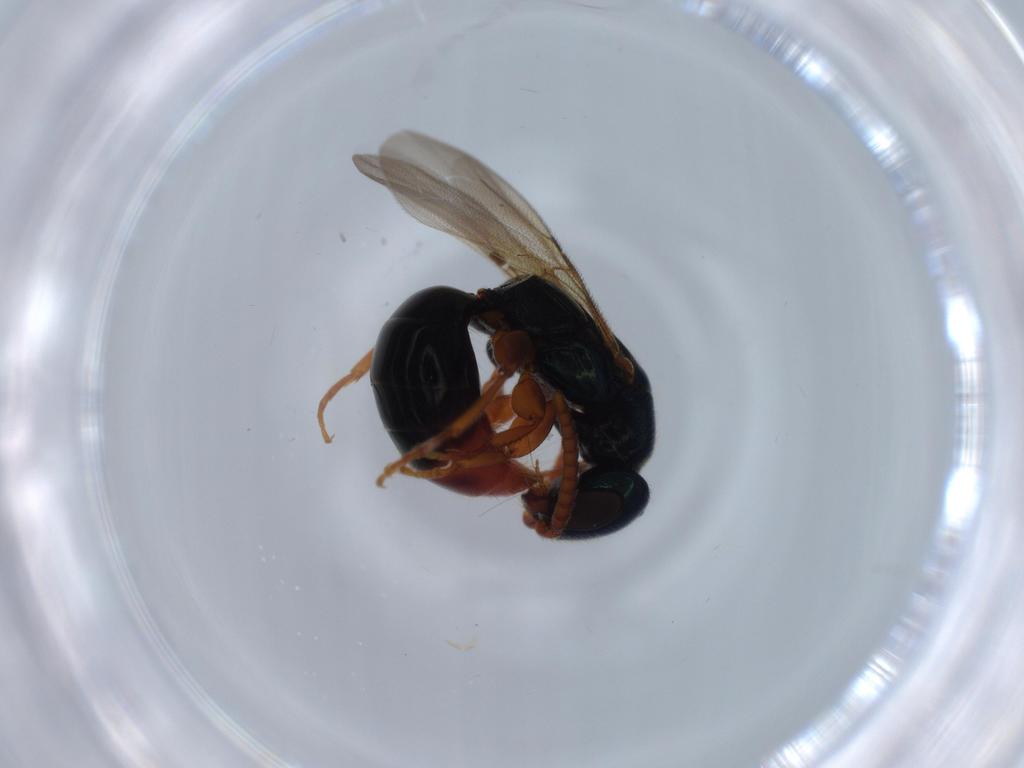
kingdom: Animalia
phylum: Arthropoda
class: Insecta
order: Hymenoptera
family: Bethylidae
